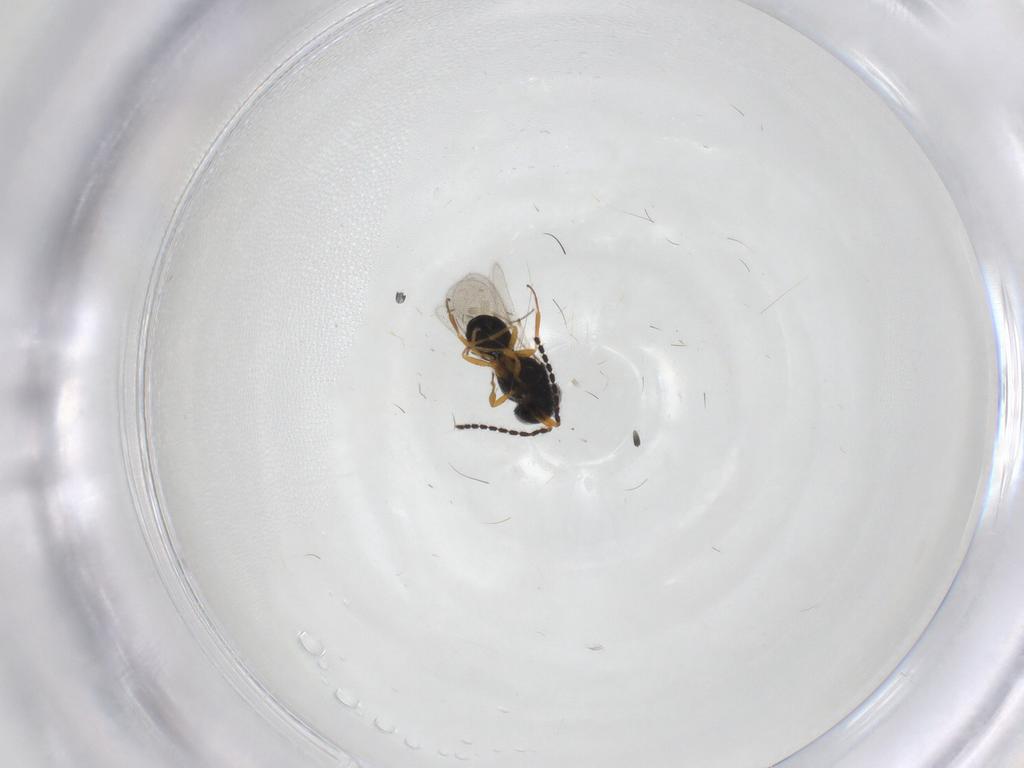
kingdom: Animalia
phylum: Arthropoda
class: Insecta
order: Hymenoptera
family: Scelionidae
